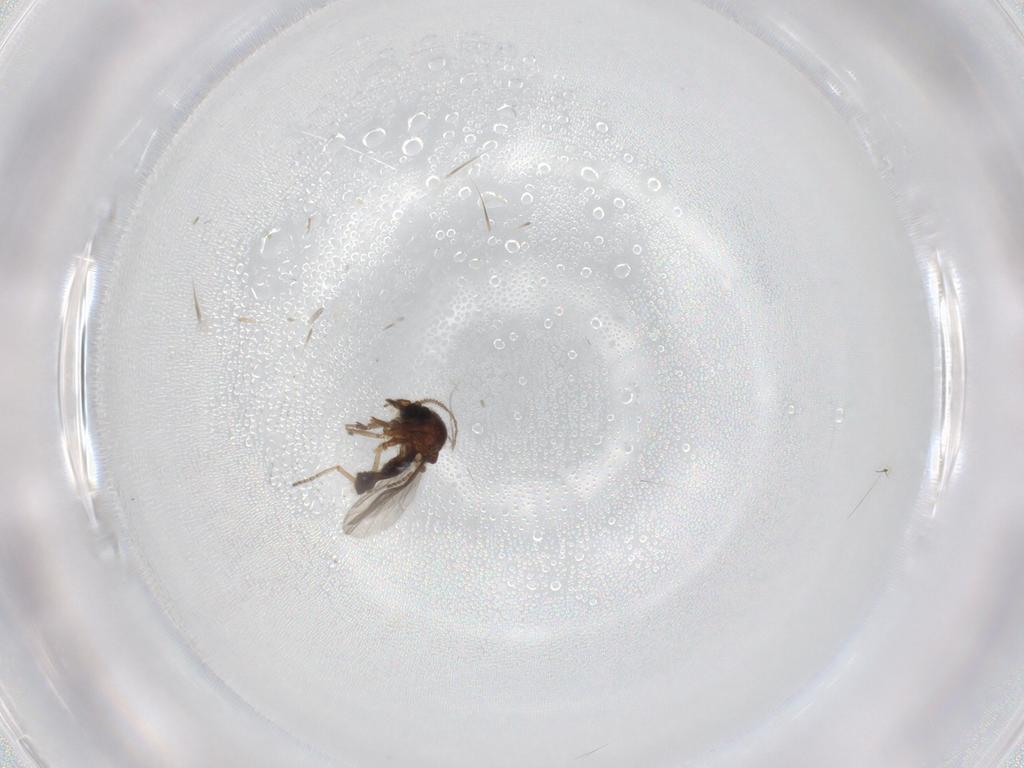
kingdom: Animalia
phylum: Arthropoda
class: Insecta
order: Diptera
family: Ceratopogonidae
